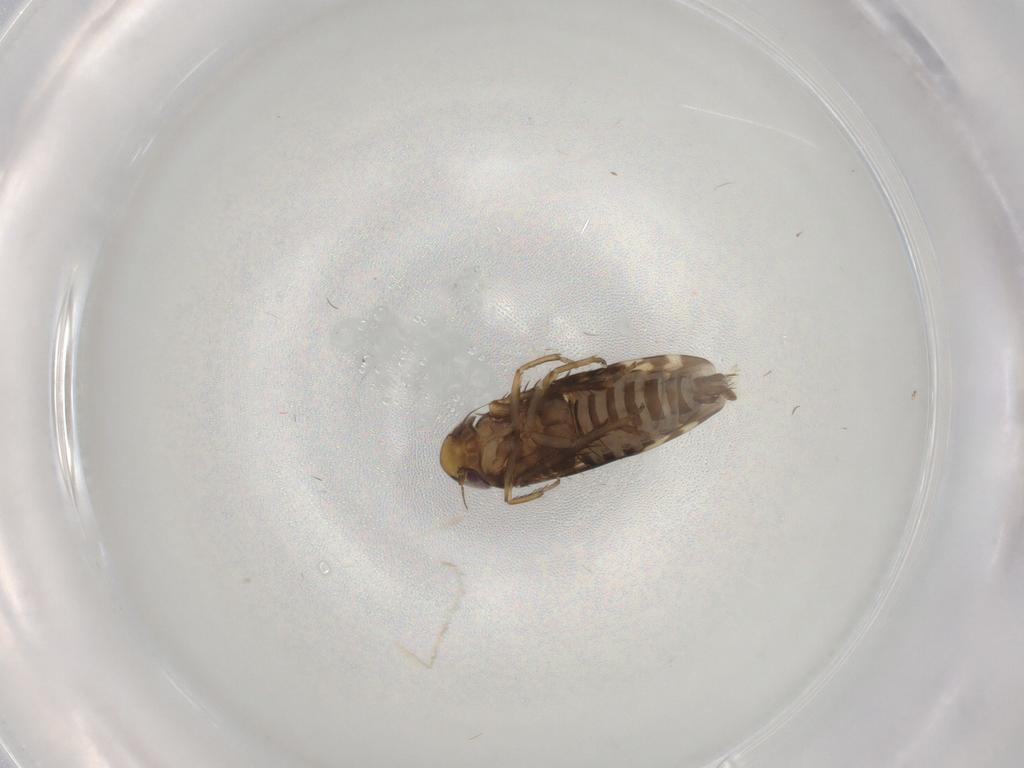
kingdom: Animalia
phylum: Arthropoda
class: Insecta
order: Hemiptera
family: Cicadellidae
